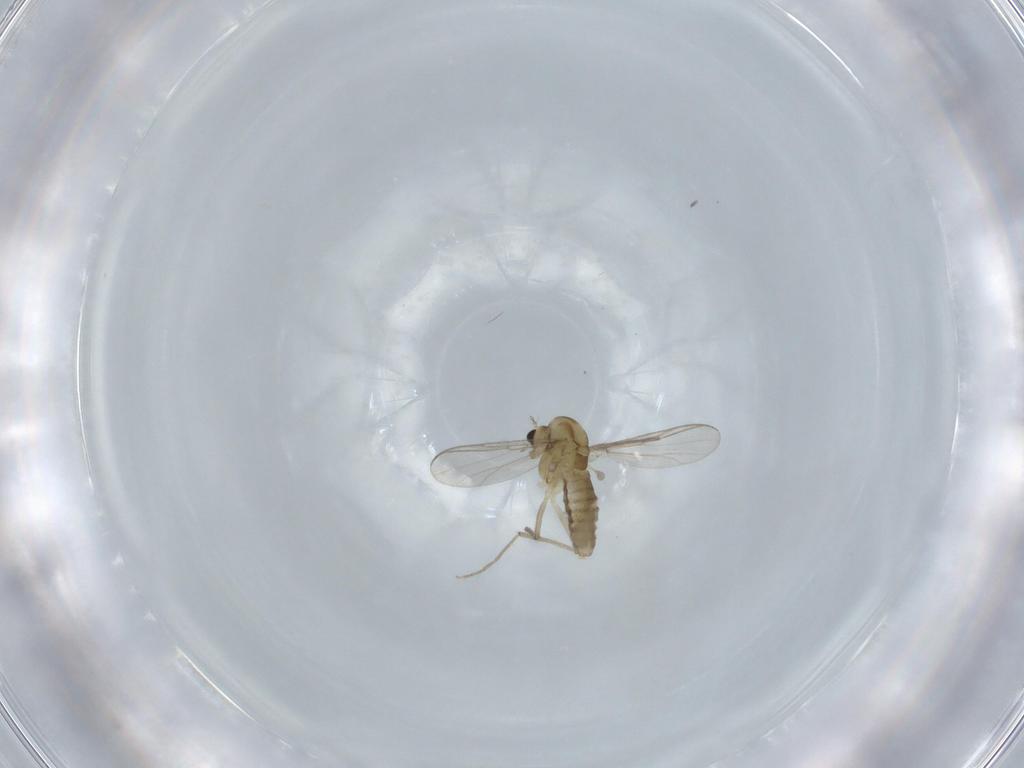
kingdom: Animalia
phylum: Arthropoda
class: Insecta
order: Diptera
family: Chironomidae
